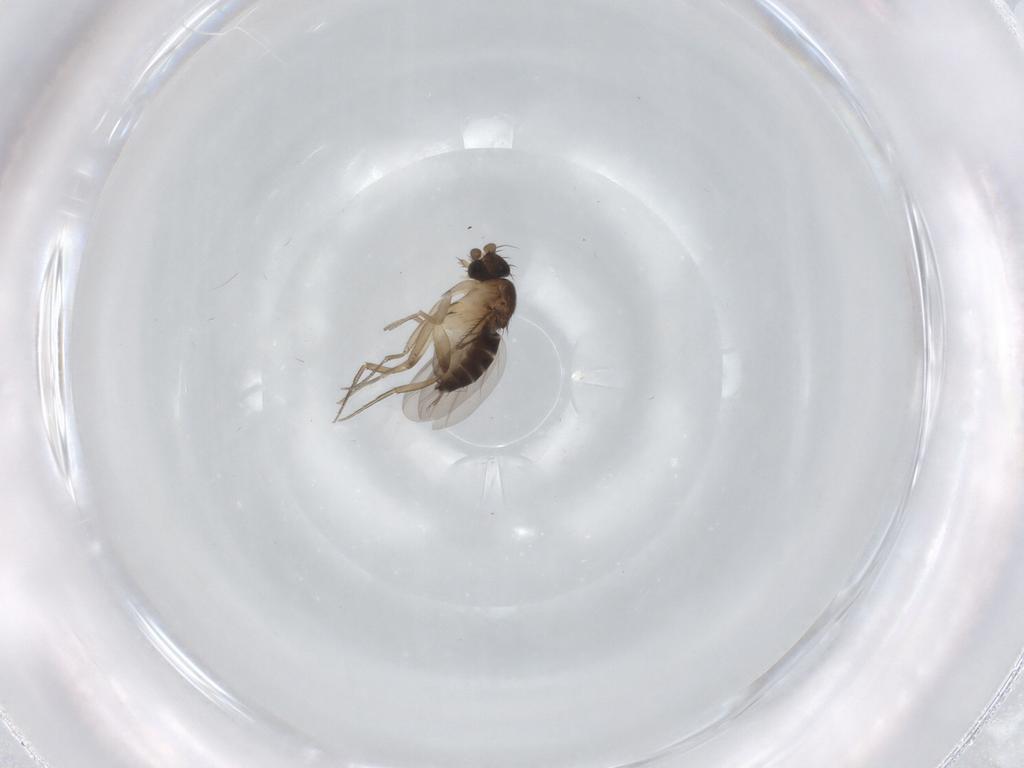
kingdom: Animalia
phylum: Arthropoda
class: Insecta
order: Diptera
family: Phoridae
